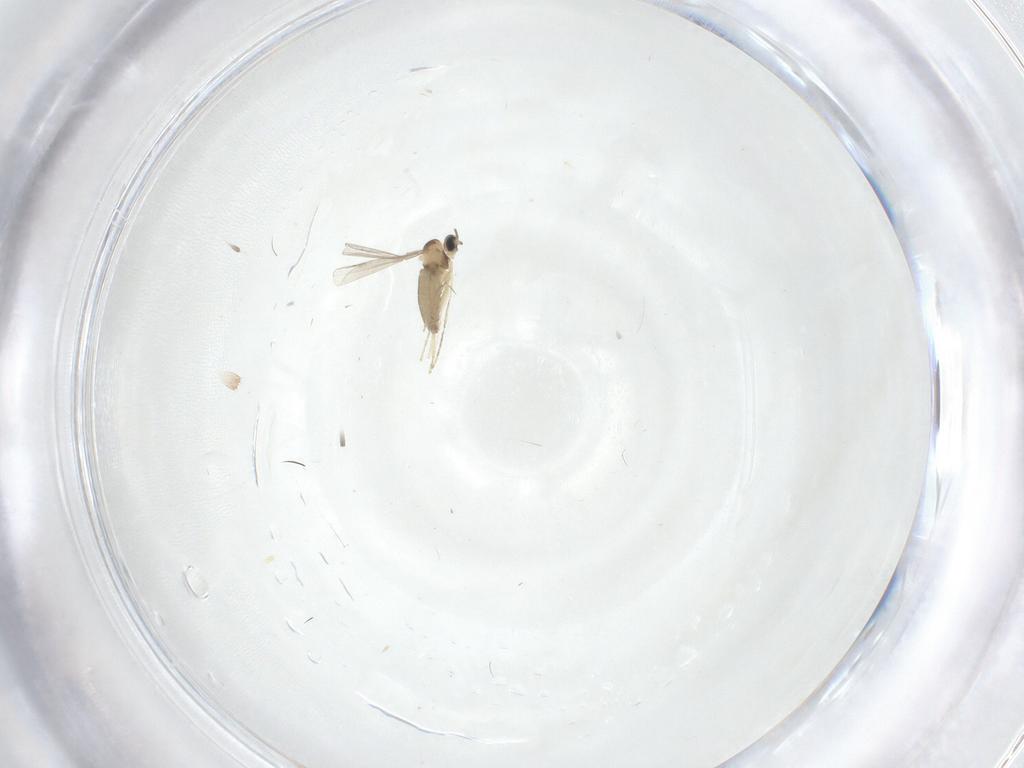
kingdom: Animalia
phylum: Arthropoda
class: Insecta
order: Diptera
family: Cecidomyiidae
